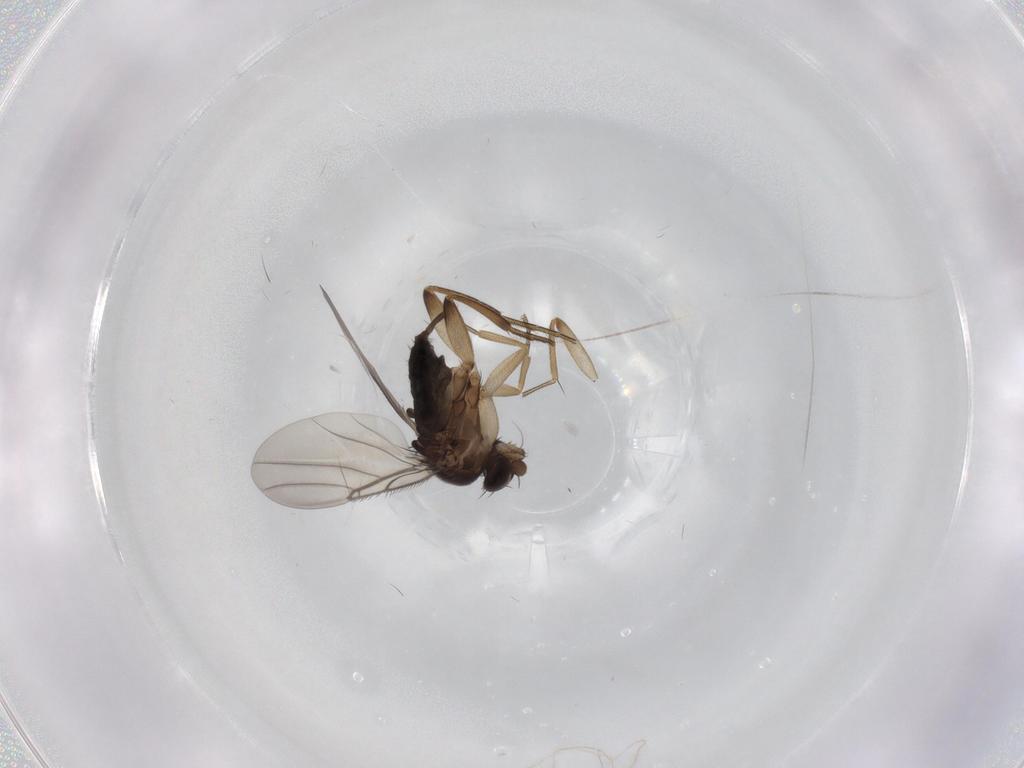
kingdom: Animalia
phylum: Arthropoda
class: Insecta
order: Diptera
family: Phoridae
